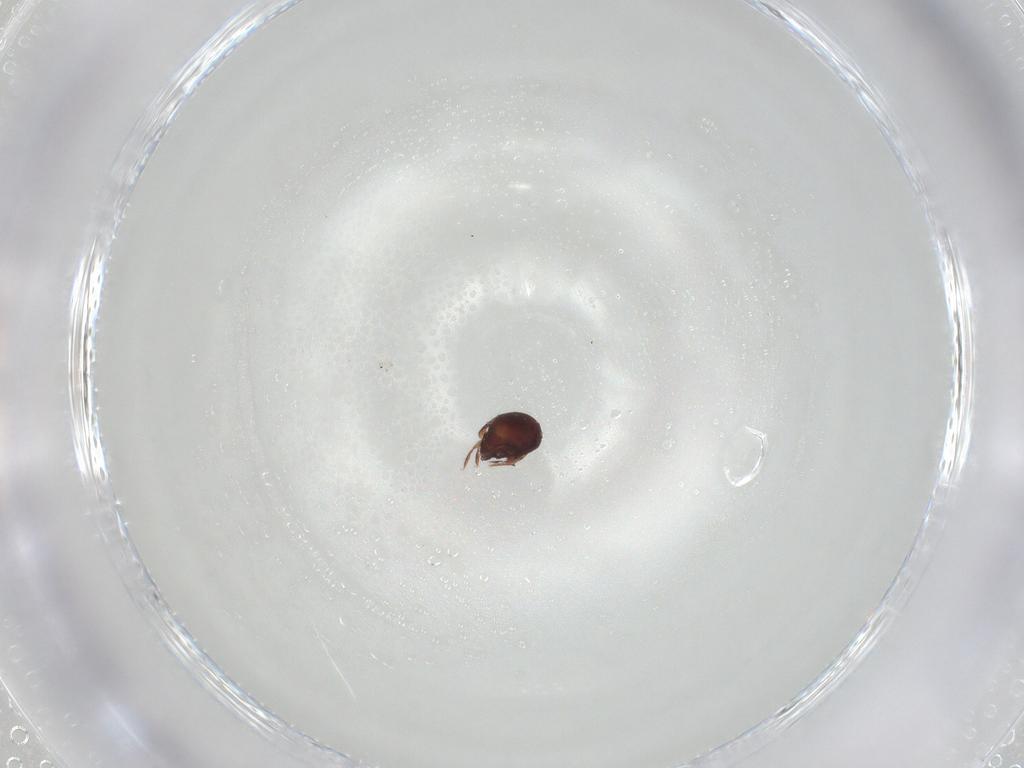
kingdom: Animalia
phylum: Arthropoda
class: Arachnida
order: Sarcoptiformes
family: Humerobatidae
